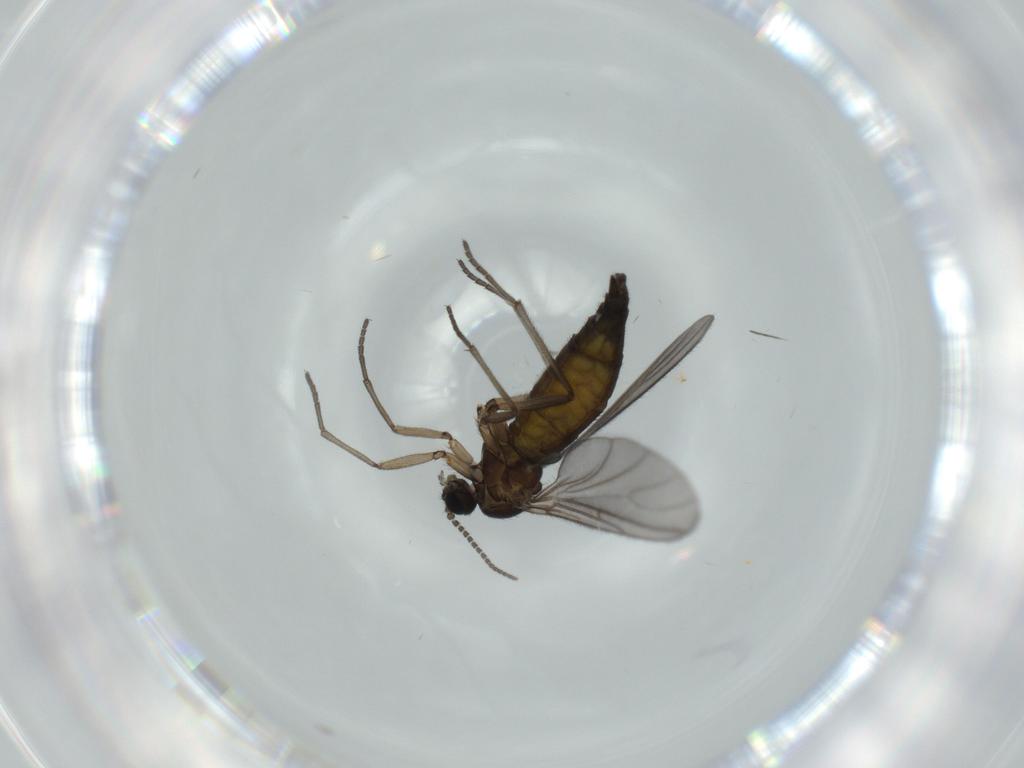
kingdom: Animalia
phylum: Arthropoda
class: Insecta
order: Diptera
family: Sciaridae
